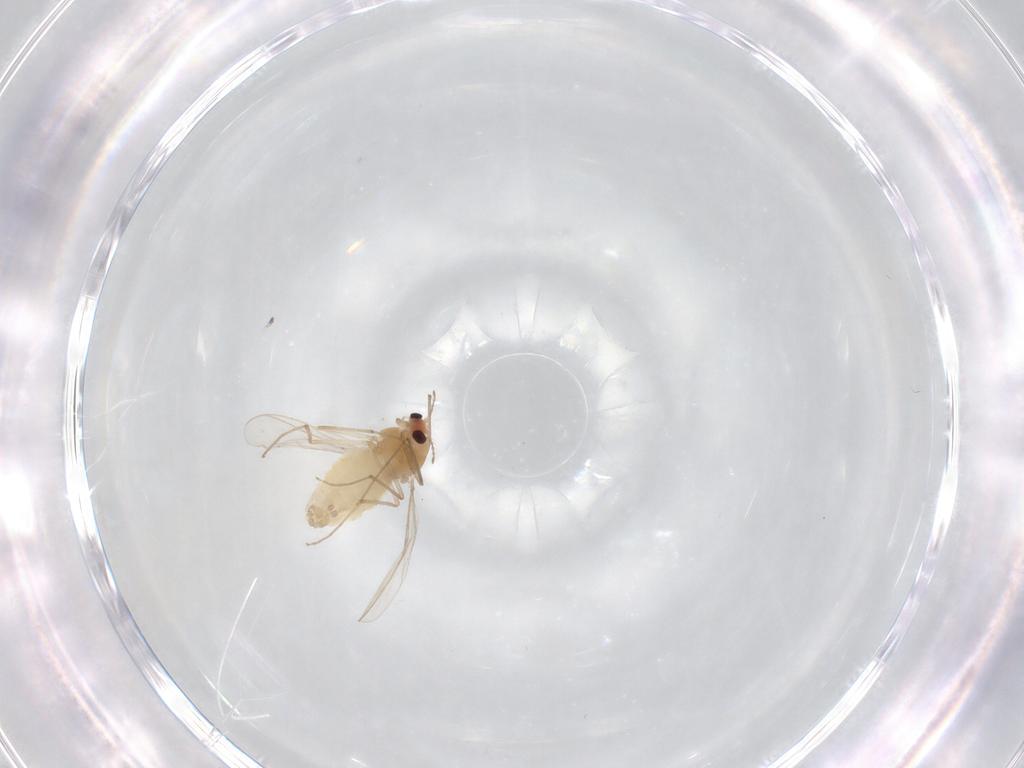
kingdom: Animalia
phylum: Arthropoda
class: Insecta
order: Diptera
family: Chironomidae
